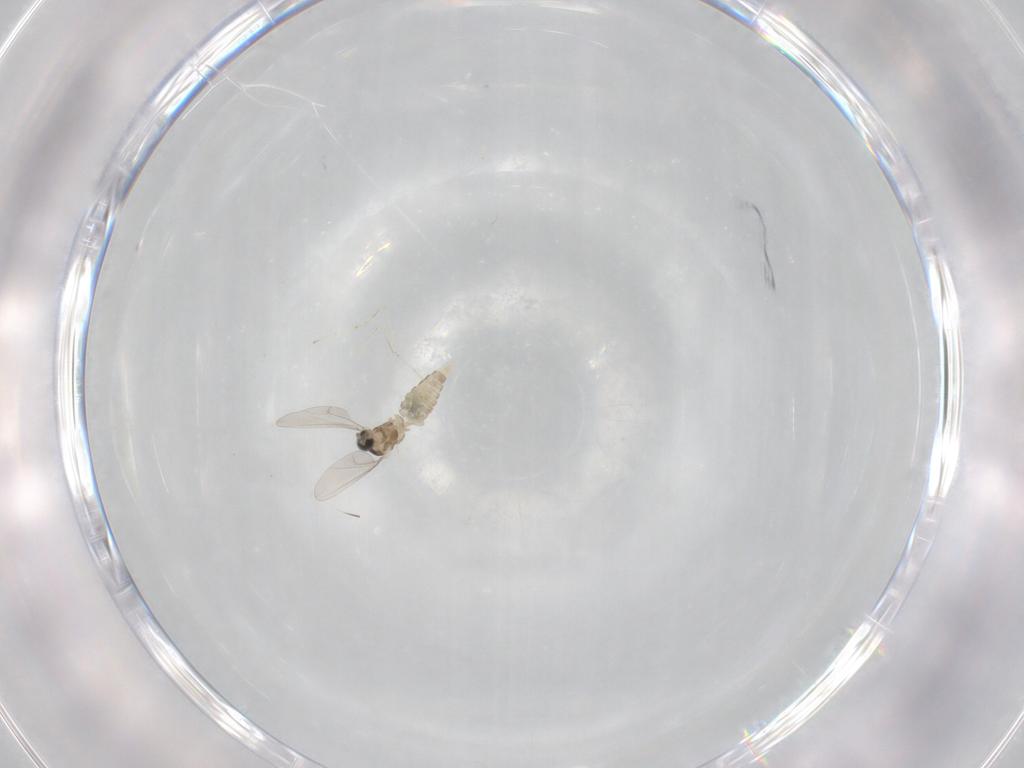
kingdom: Animalia
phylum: Arthropoda
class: Insecta
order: Diptera
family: Cecidomyiidae
